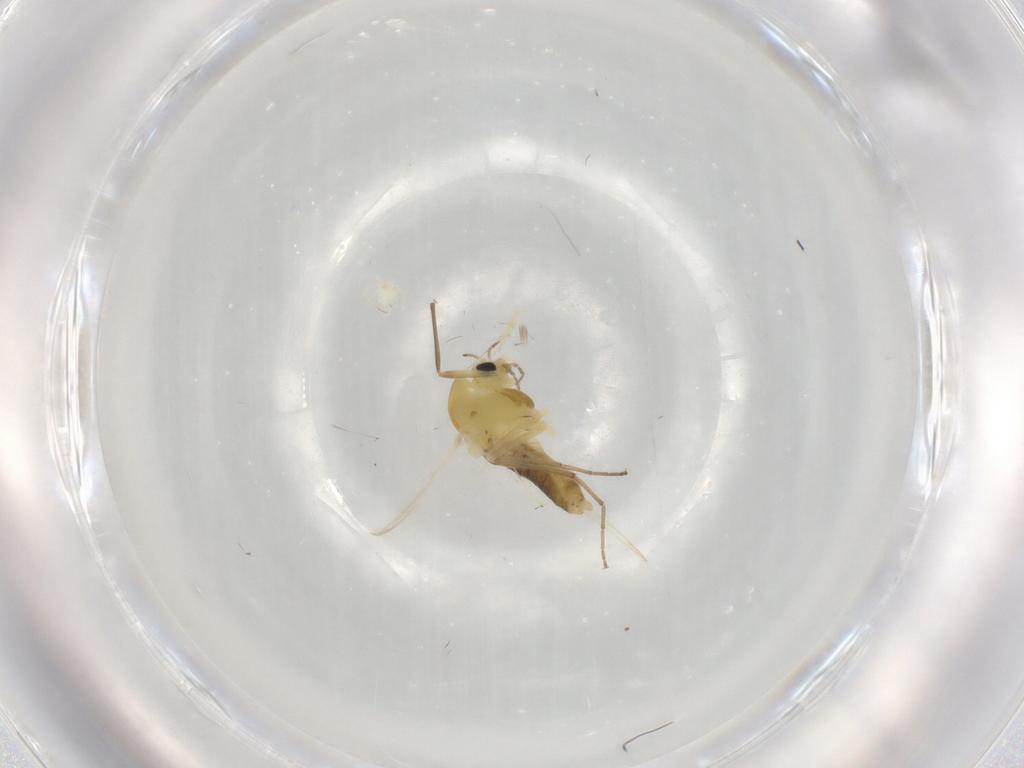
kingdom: Animalia
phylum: Arthropoda
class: Insecta
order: Diptera
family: Chironomidae
